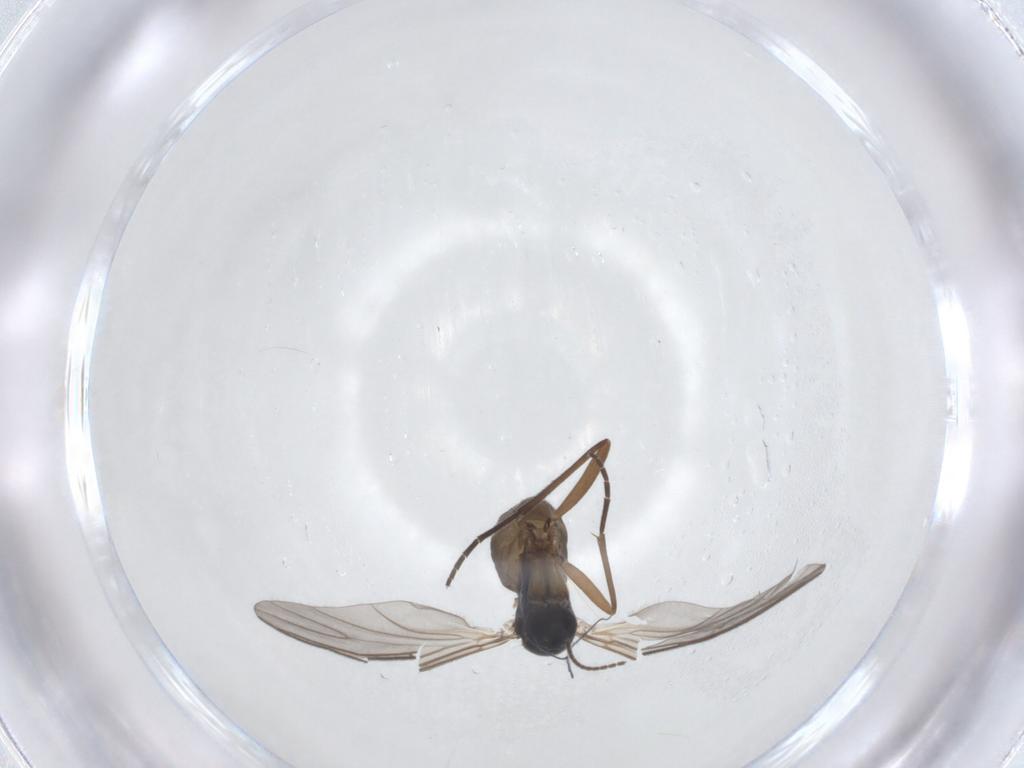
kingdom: Animalia
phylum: Arthropoda
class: Insecta
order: Diptera
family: Sciaridae
